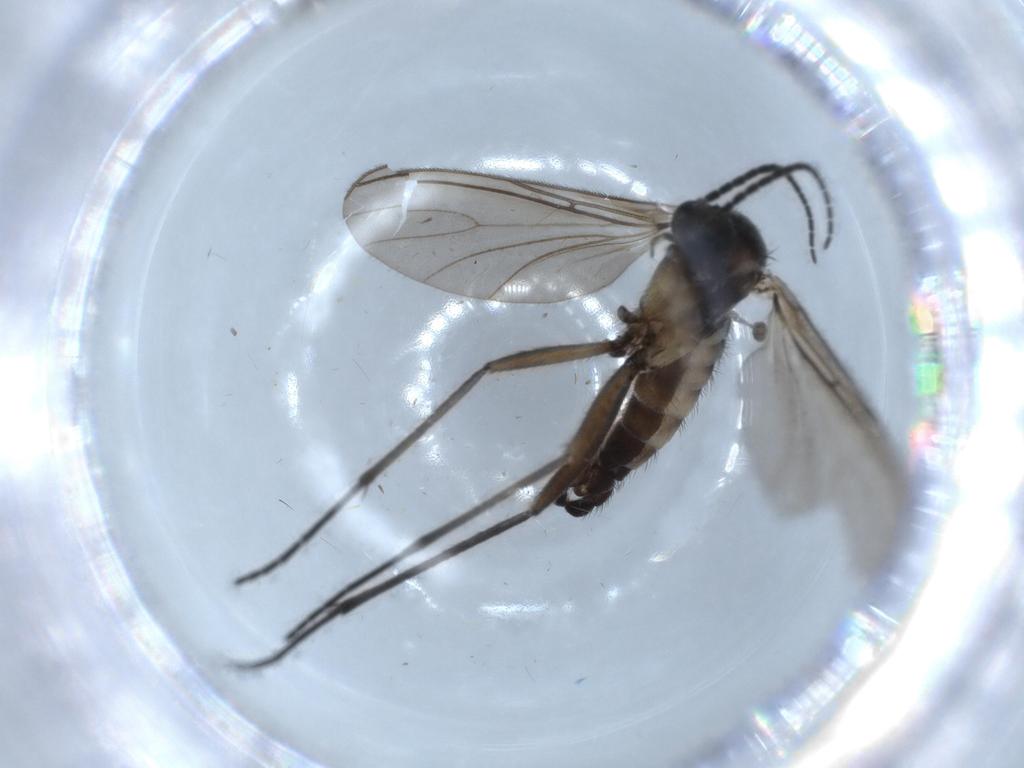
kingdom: Animalia
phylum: Arthropoda
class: Insecta
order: Diptera
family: Sciaridae
